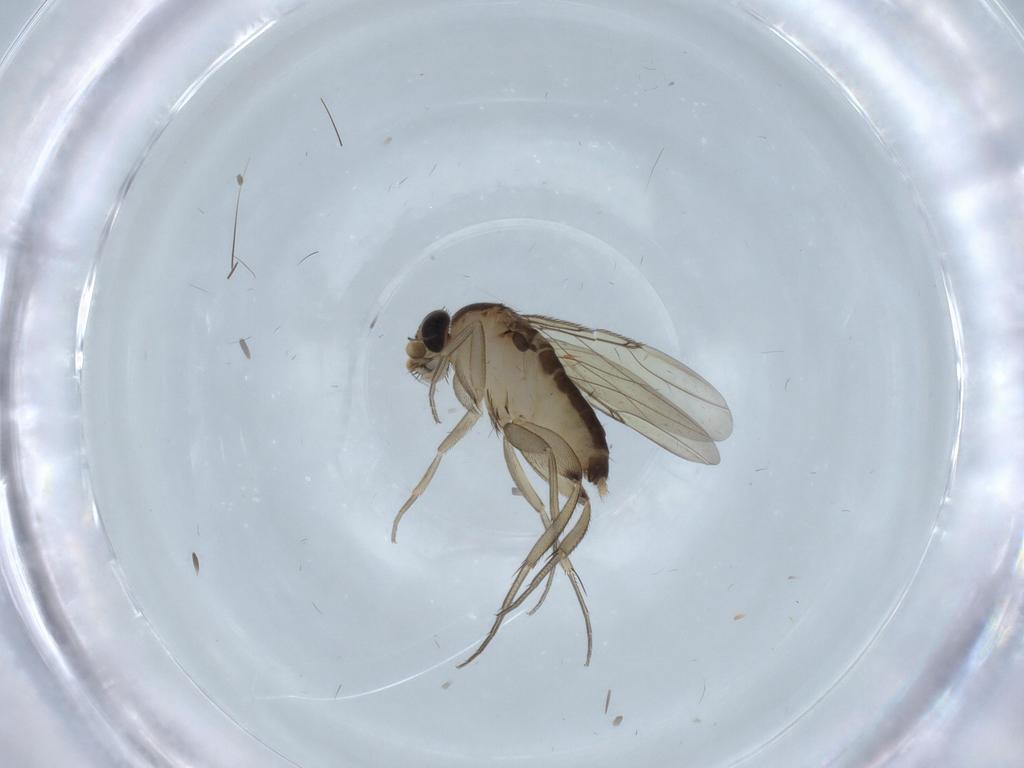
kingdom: Animalia
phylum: Arthropoda
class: Insecta
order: Diptera
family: Phoridae
